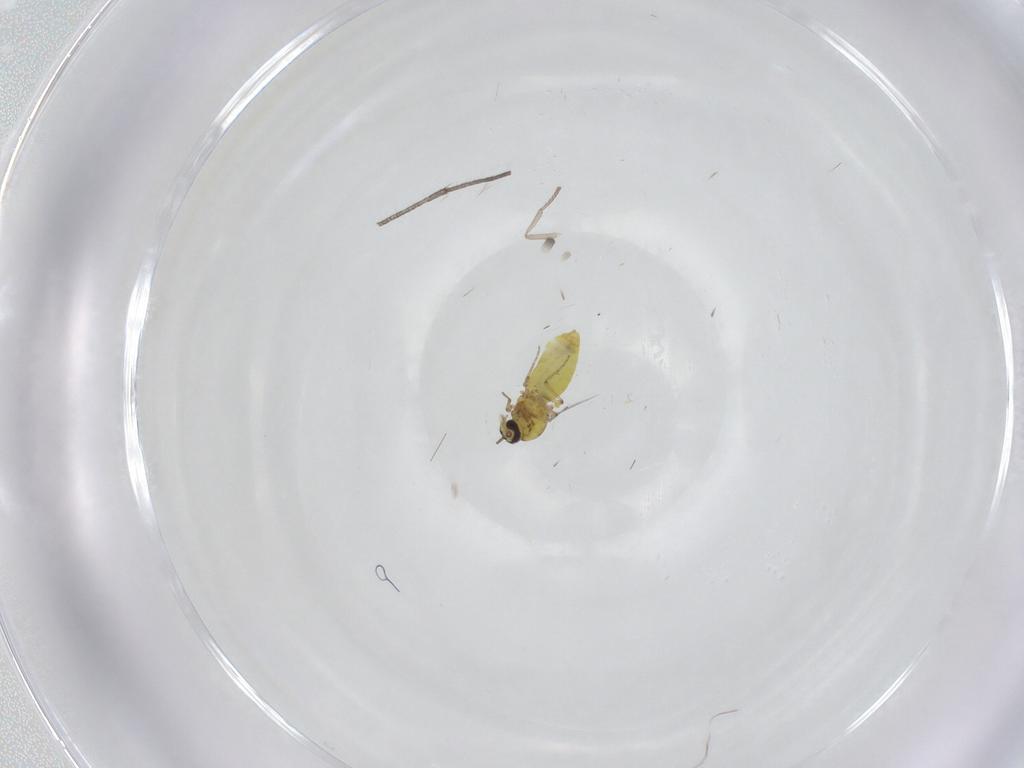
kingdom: Animalia
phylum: Arthropoda
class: Insecta
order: Diptera
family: Ceratopogonidae
